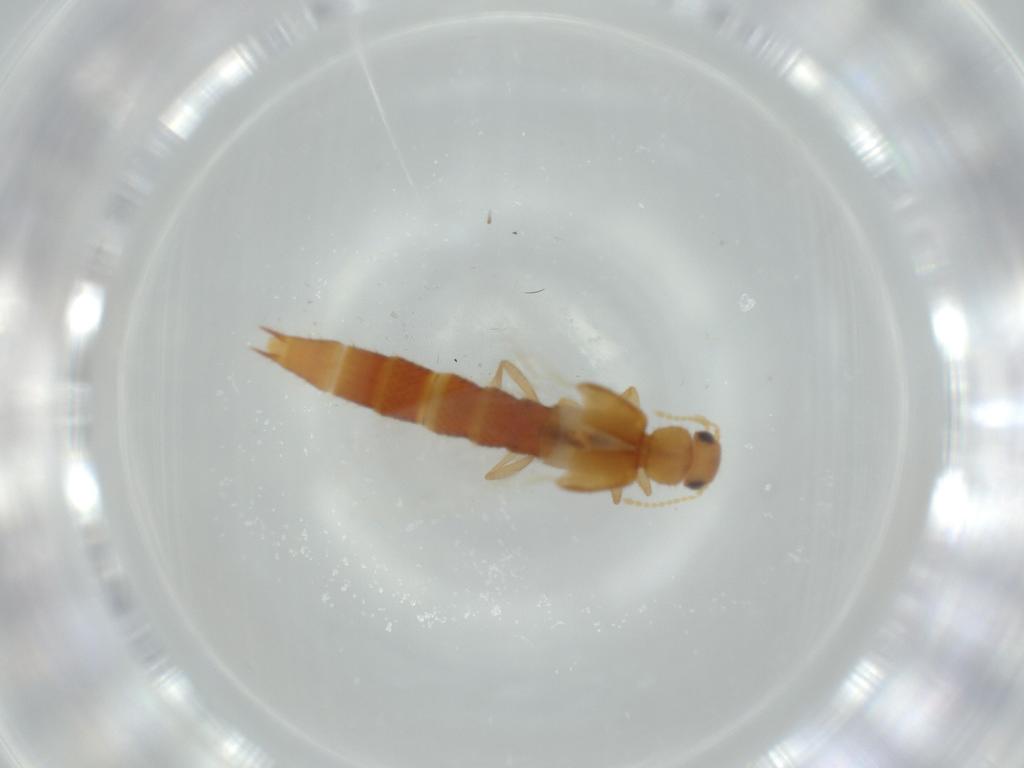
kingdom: Animalia
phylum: Arthropoda
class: Insecta
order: Coleoptera
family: Staphylinidae
